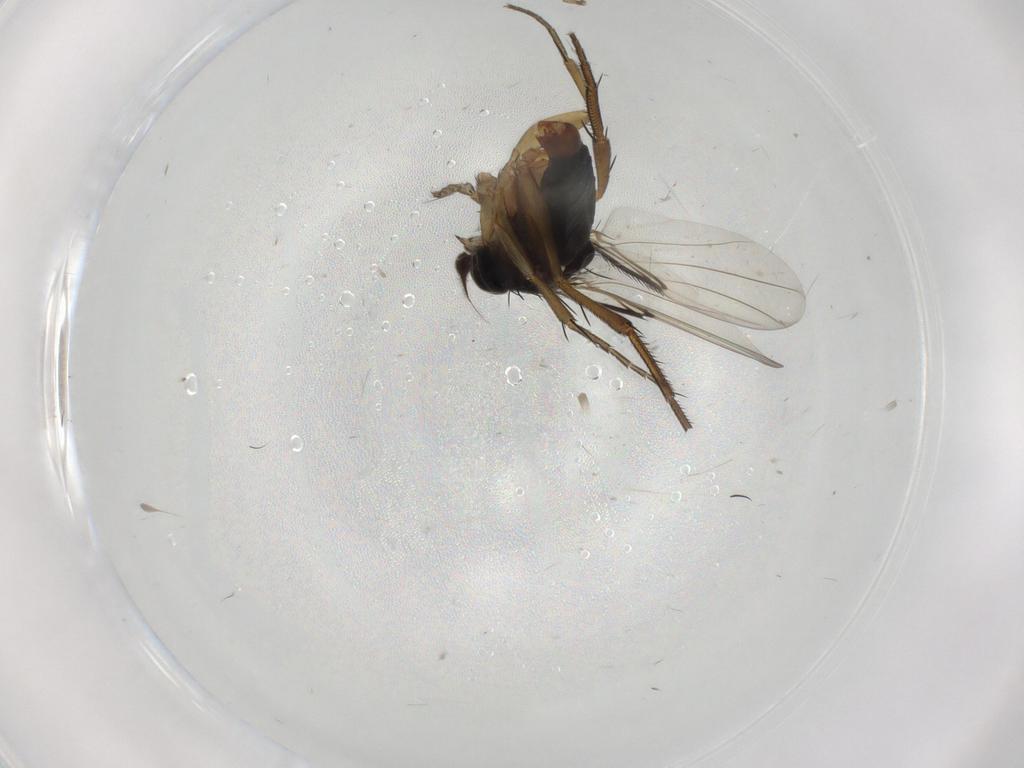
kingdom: Animalia
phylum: Arthropoda
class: Insecta
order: Diptera
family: Phoridae
